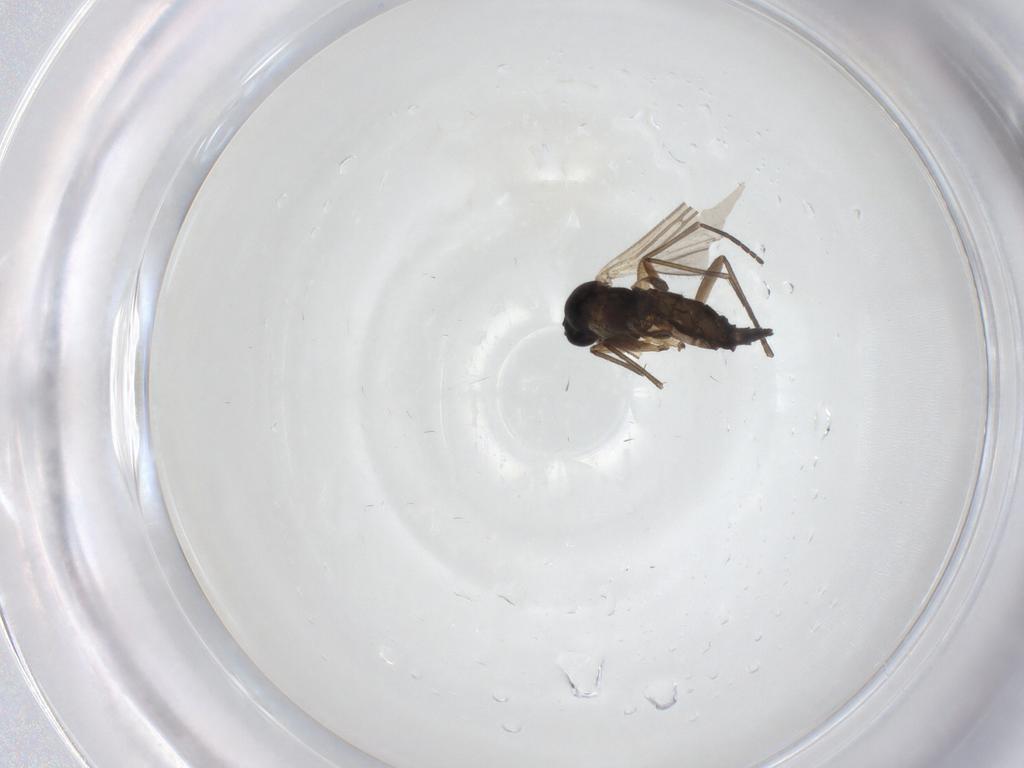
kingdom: Animalia
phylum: Arthropoda
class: Insecta
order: Diptera
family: Sciaridae
